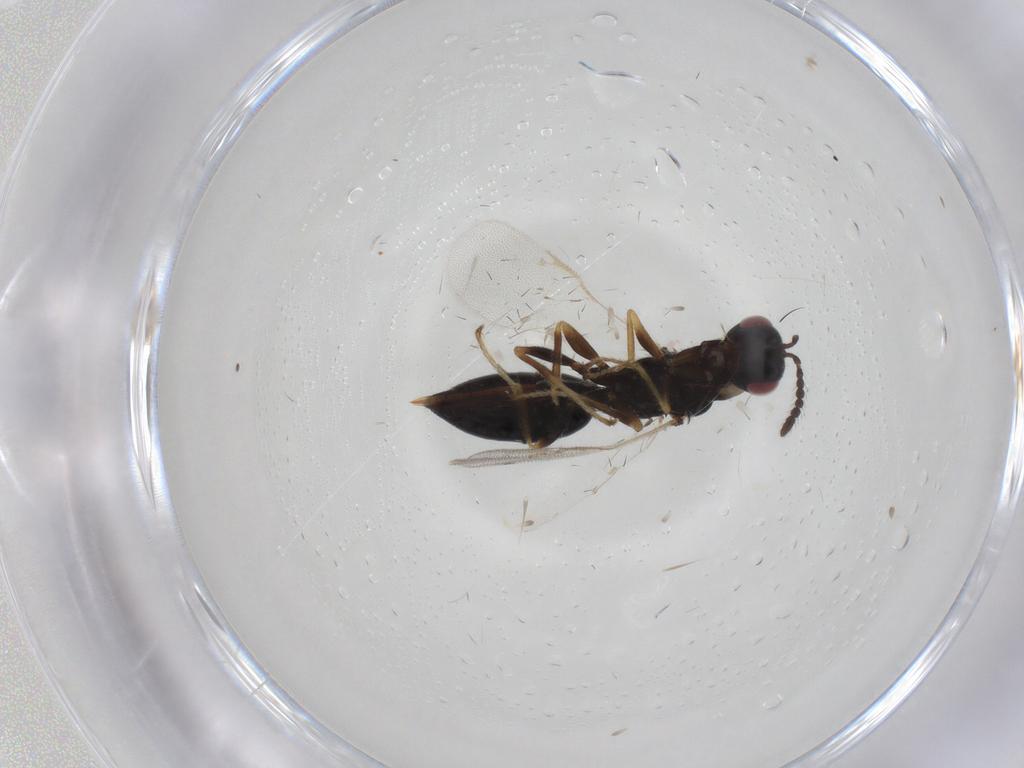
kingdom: Animalia
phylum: Arthropoda
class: Insecta
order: Hymenoptera
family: Eurytomidae
